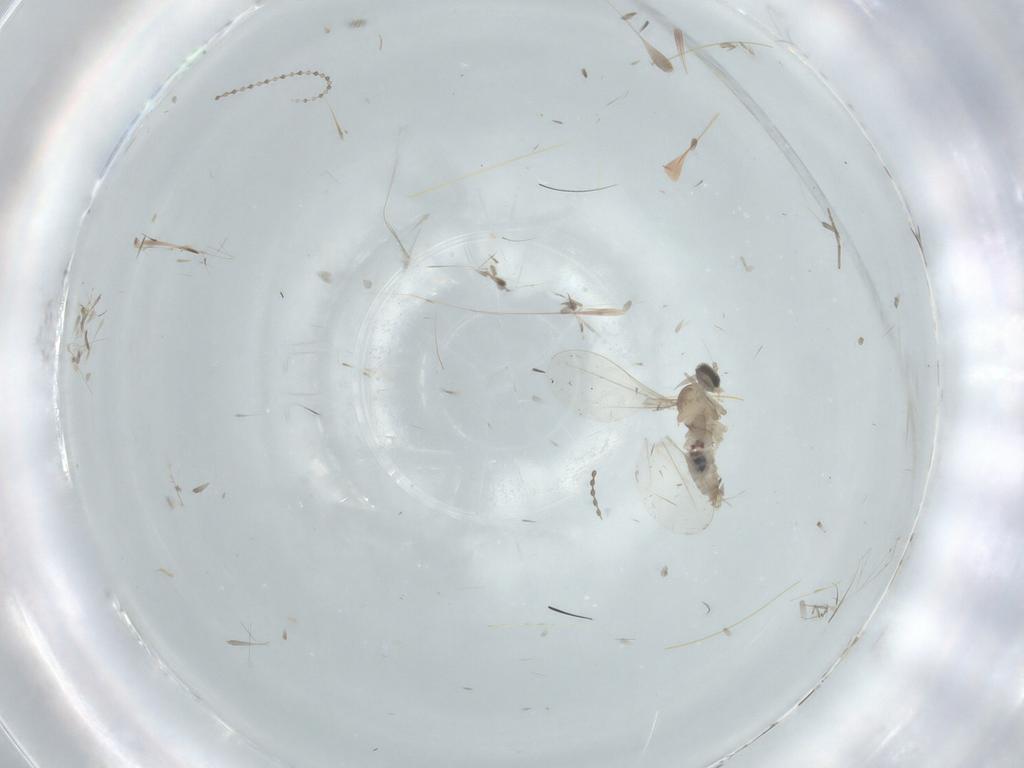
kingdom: Animalia
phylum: Arthropoda
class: Insecta
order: Diptera
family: Cecidomyiidae
